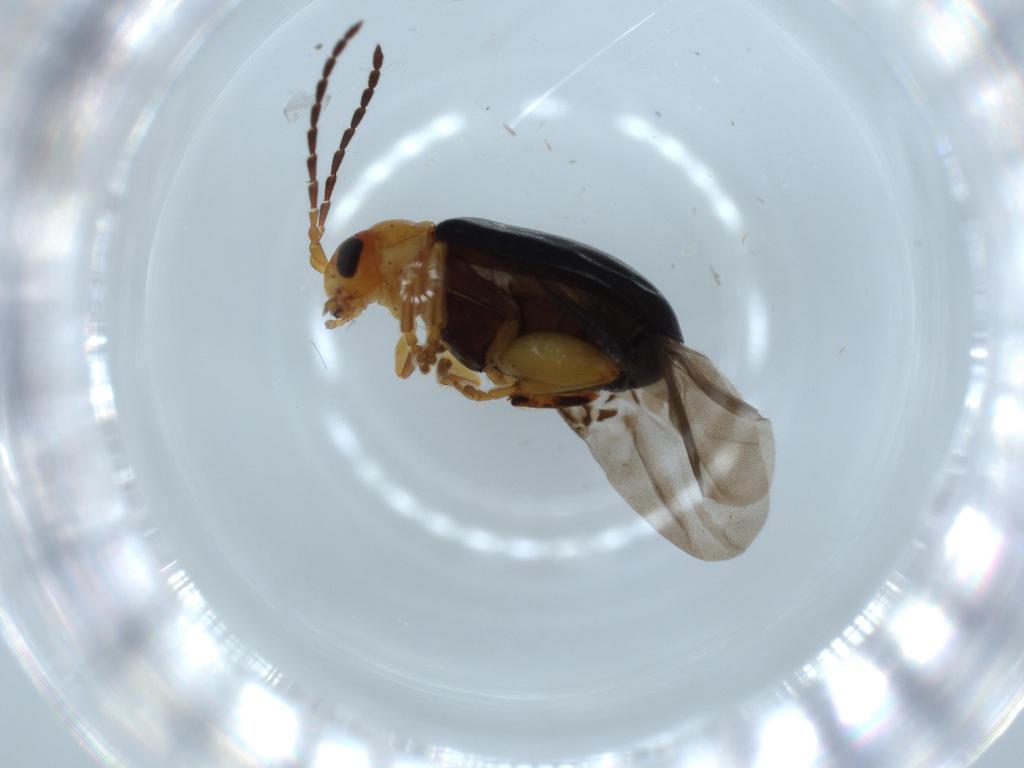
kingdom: Animalia
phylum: Arthropoda
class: Insecta
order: Coleoptera
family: Chrysomelidae
